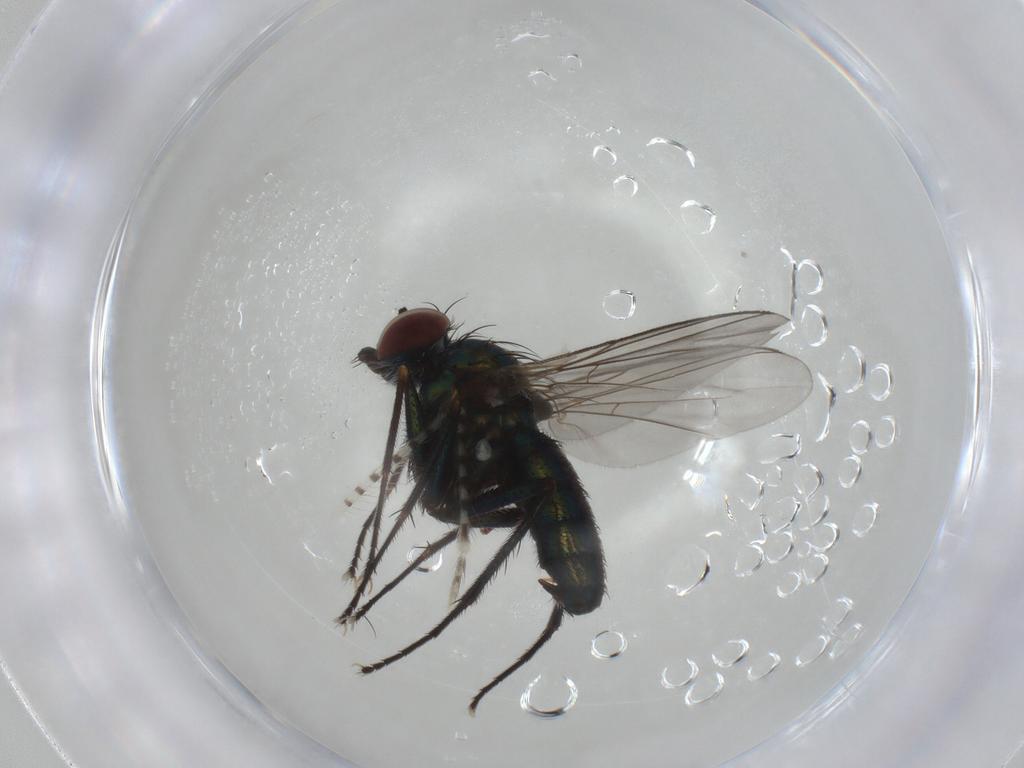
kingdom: Animalia
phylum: Arthropoda
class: Insecta
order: Diptera
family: Dolichopodidae
